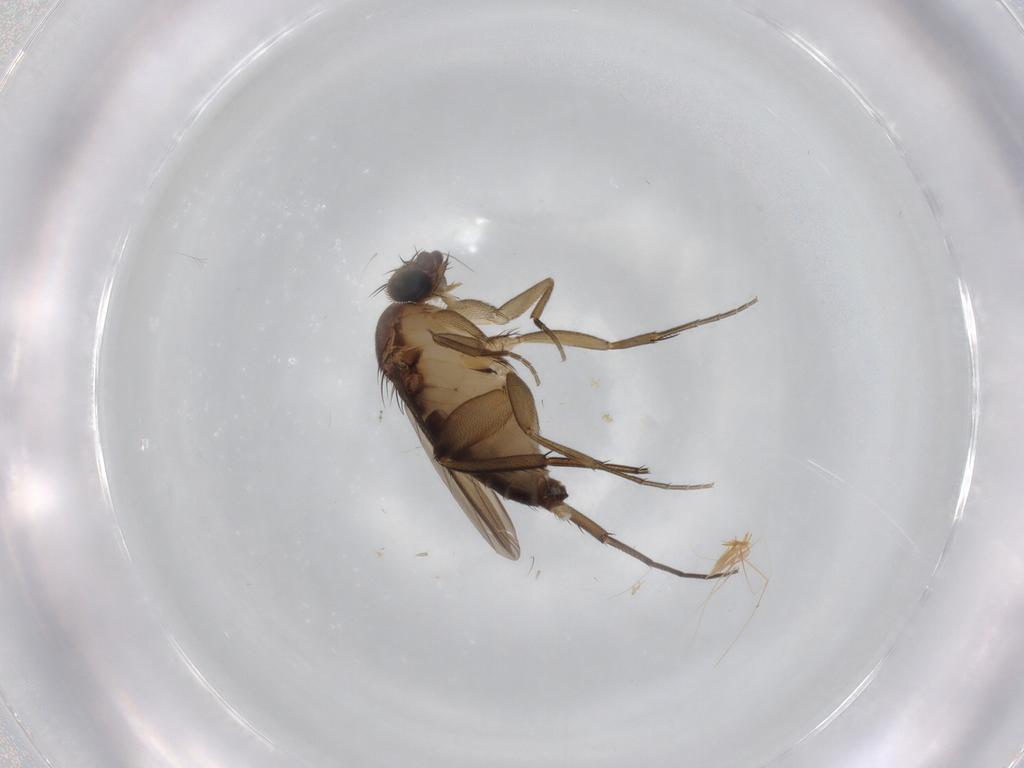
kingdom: Animalia
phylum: Arthropoda
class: Insecta
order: Diptera
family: Phoridae
